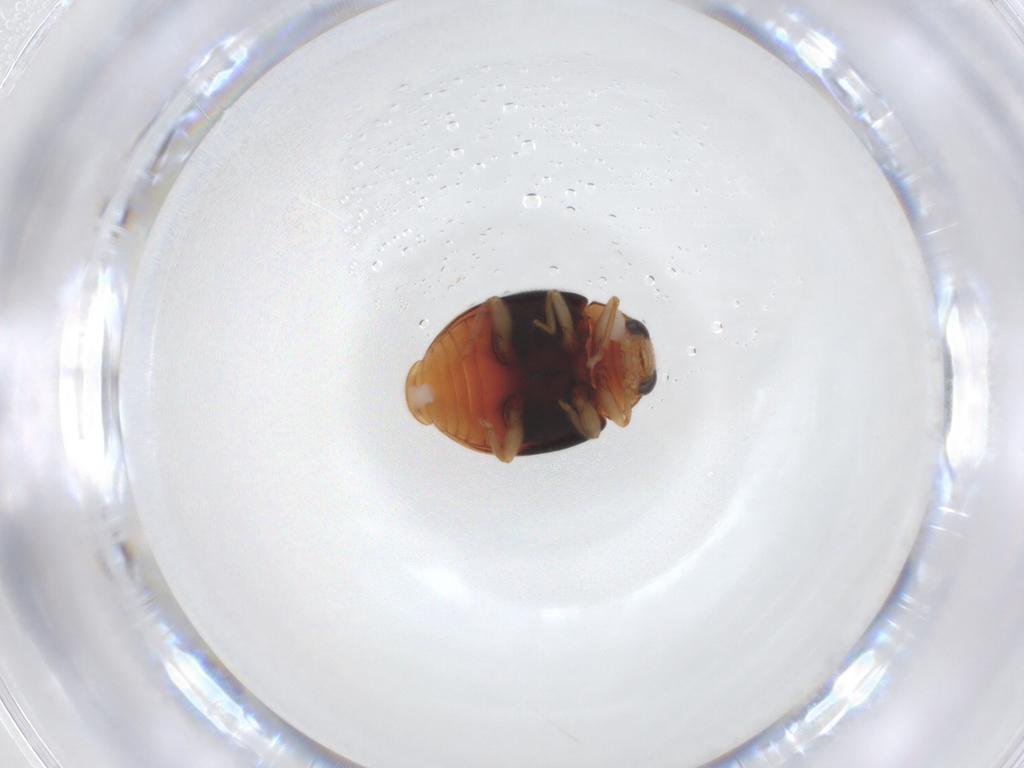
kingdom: Animalia
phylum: Arthropoda
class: Insecta
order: Coleoptera
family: Coccinellidae
